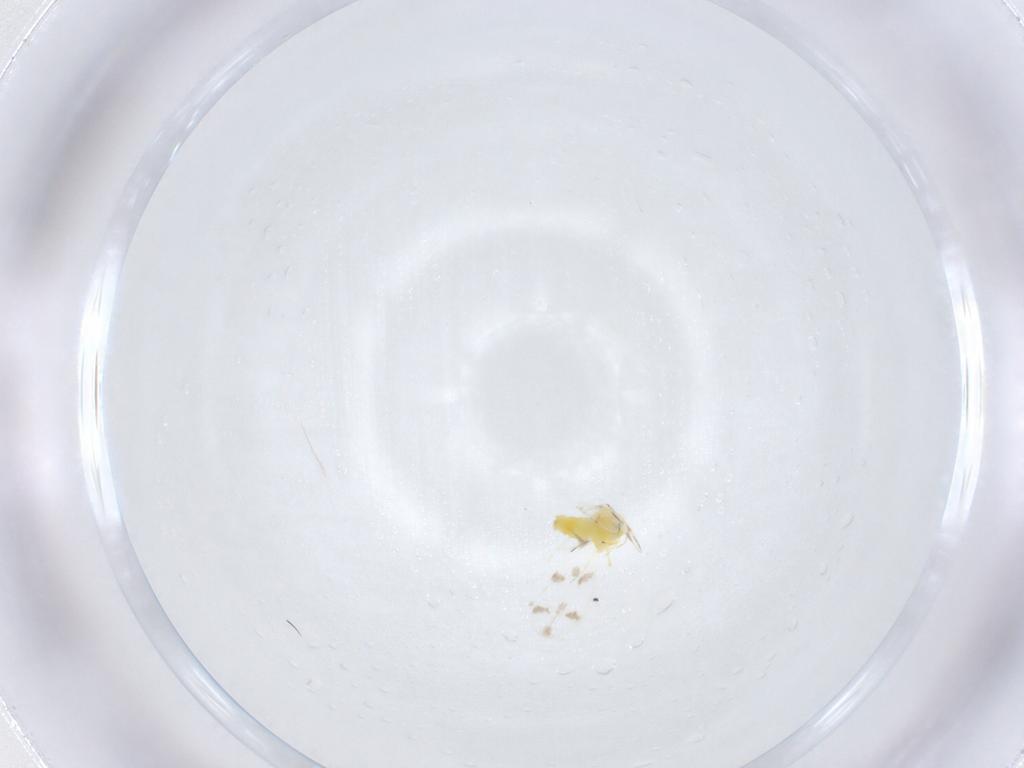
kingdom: Animalia
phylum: Arthropoda
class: Insecta
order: Hemiptera
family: Aleyrodidae
